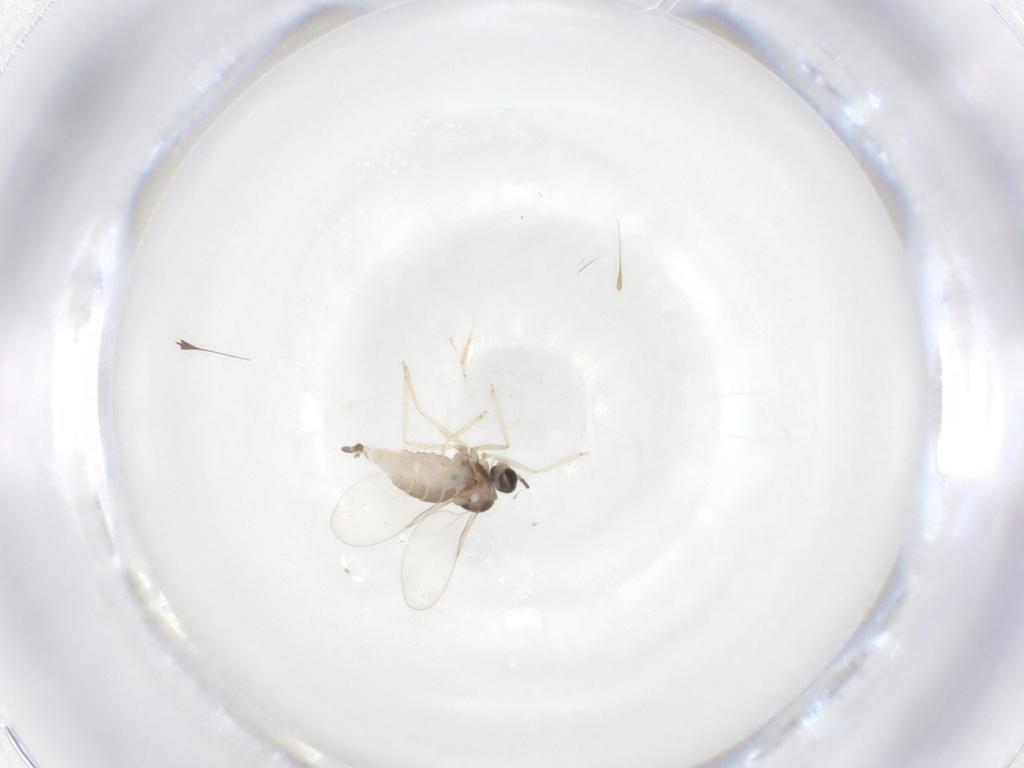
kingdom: Animalia
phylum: Arthropoda
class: Insecta
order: Diptera
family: Cecidomyiidae
